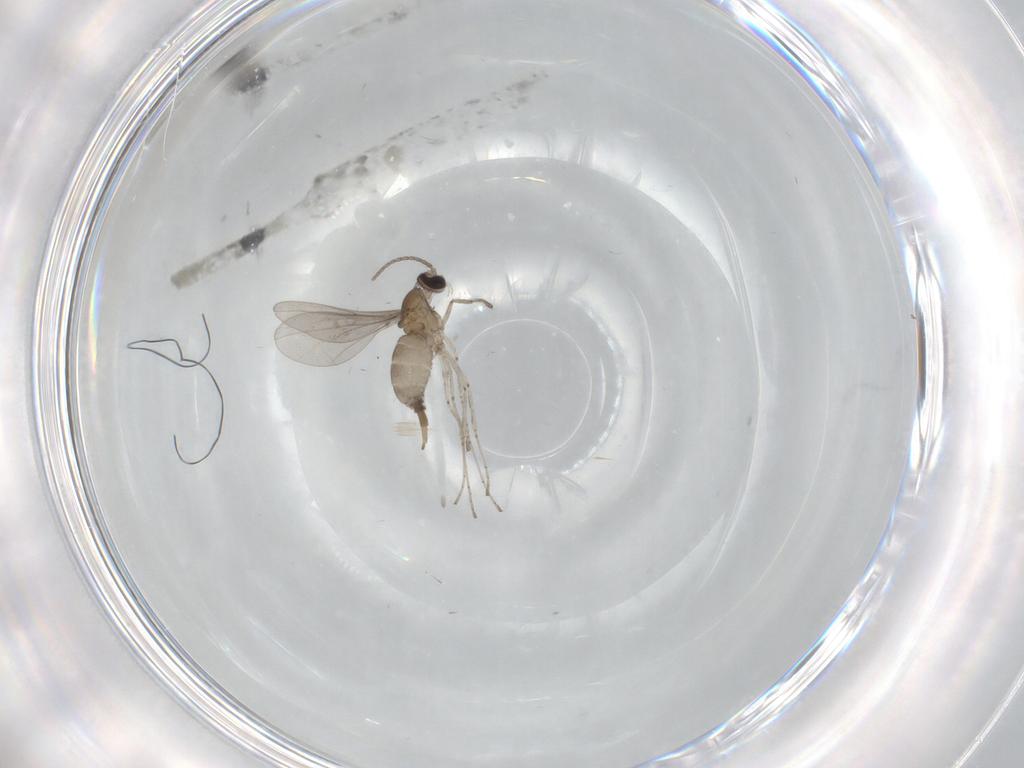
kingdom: Animalia
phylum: Arthropoda
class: Insecta
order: Diptera
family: Cecidomyiidae
